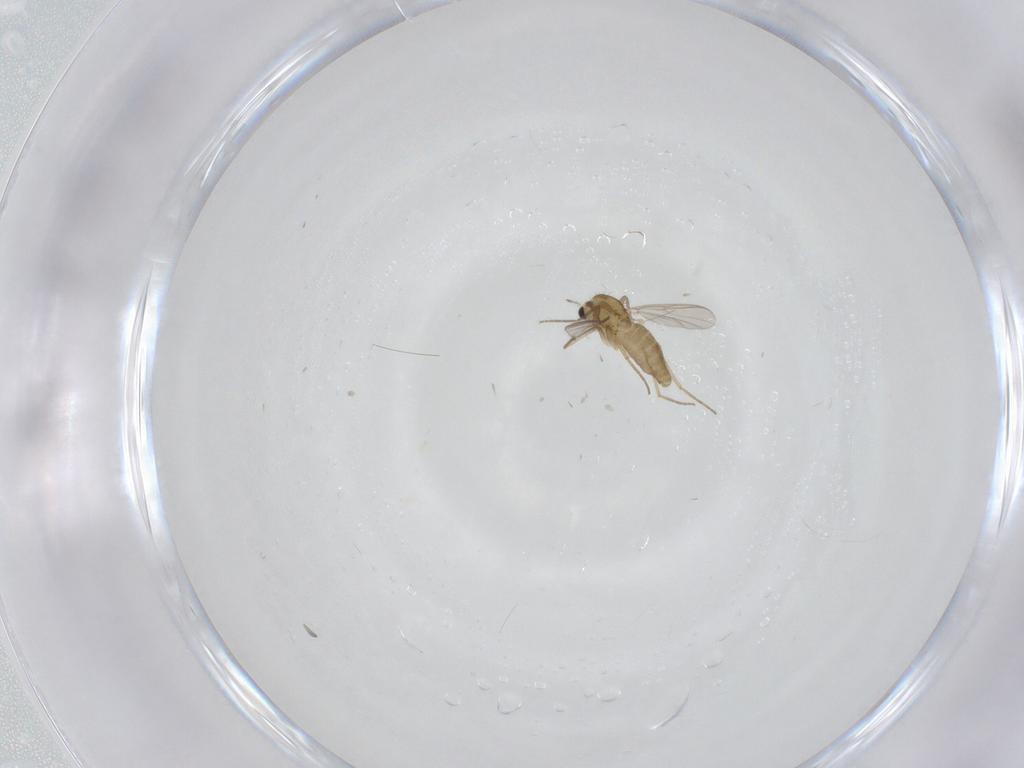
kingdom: Animalia
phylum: Arthropoda
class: Insecta
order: Diptera
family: Chironomidae
